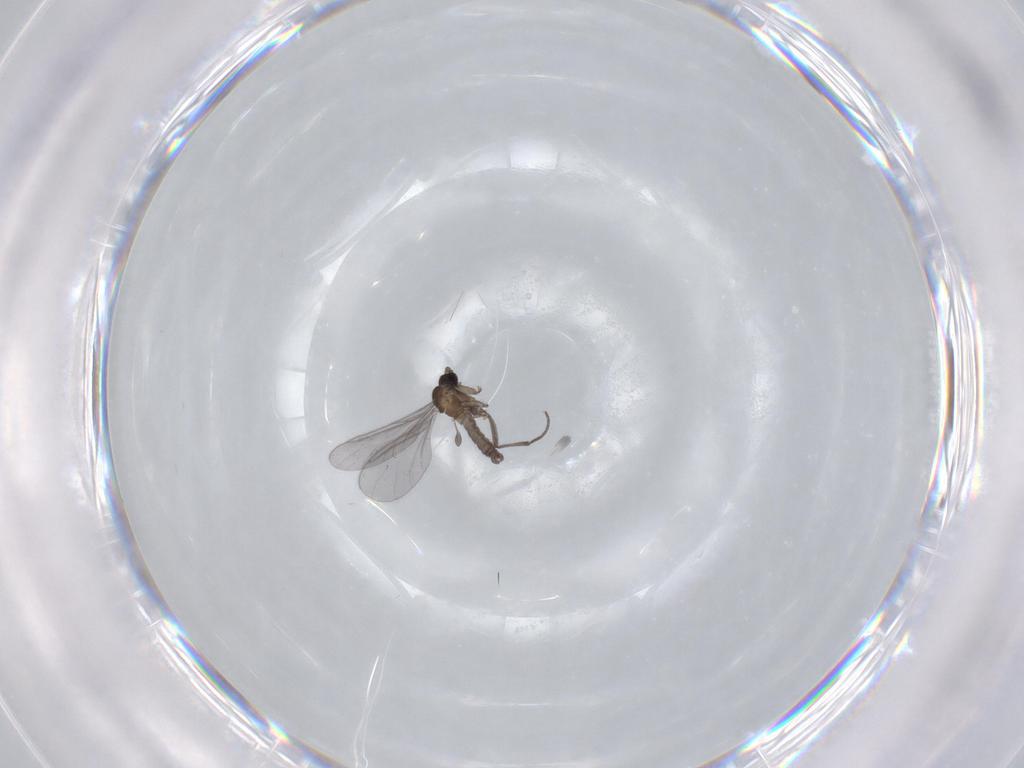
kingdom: Animalia
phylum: Arthropoda
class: Insecta
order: Diptera
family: Sciaridae
